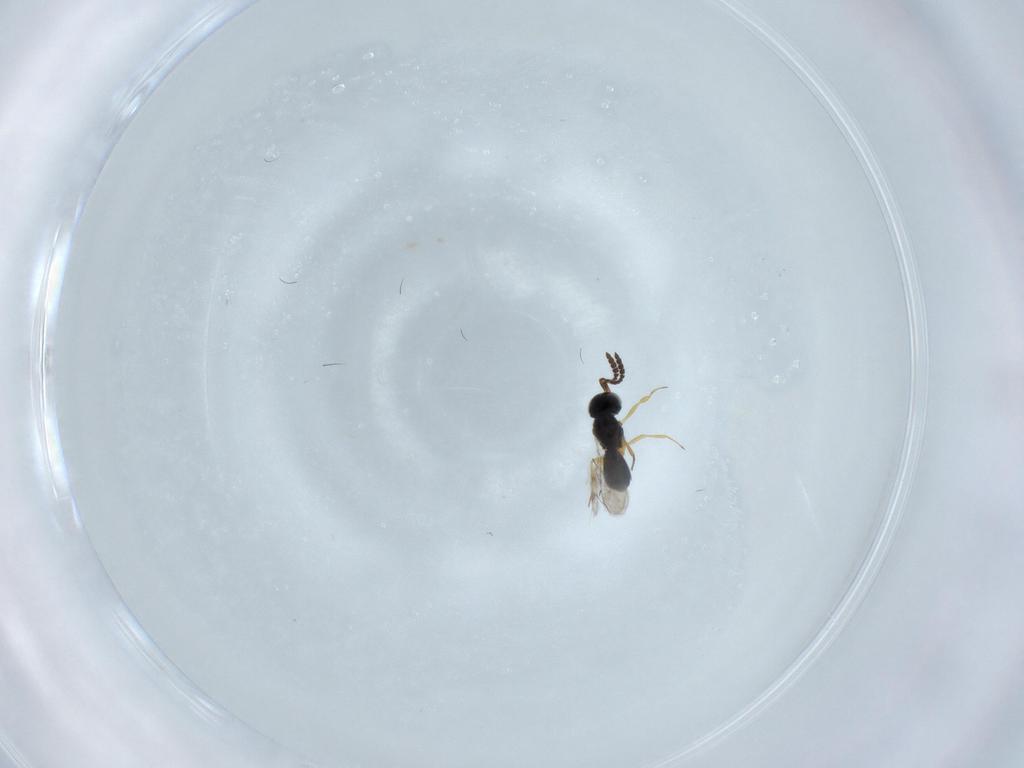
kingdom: Animalia
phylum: Arthropoda
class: Insecta
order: Hymenoptera
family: Scelionidae
